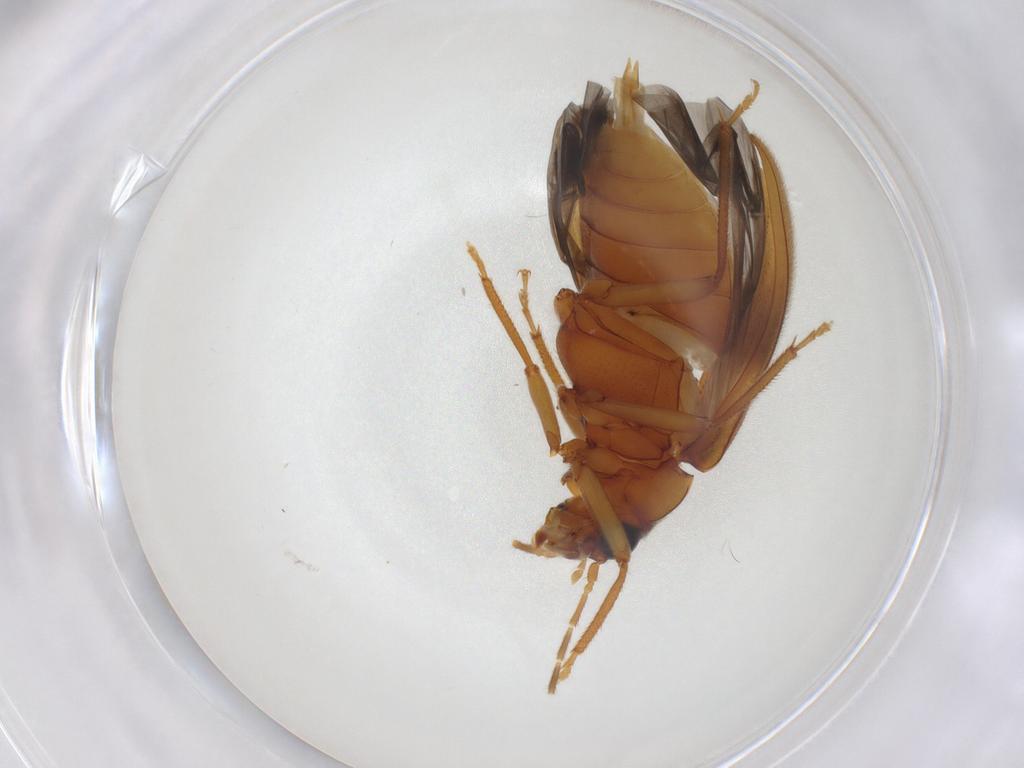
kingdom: Animalia
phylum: Arthropoda
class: Insecta
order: Coleoptera
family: Ptilodactylidae
